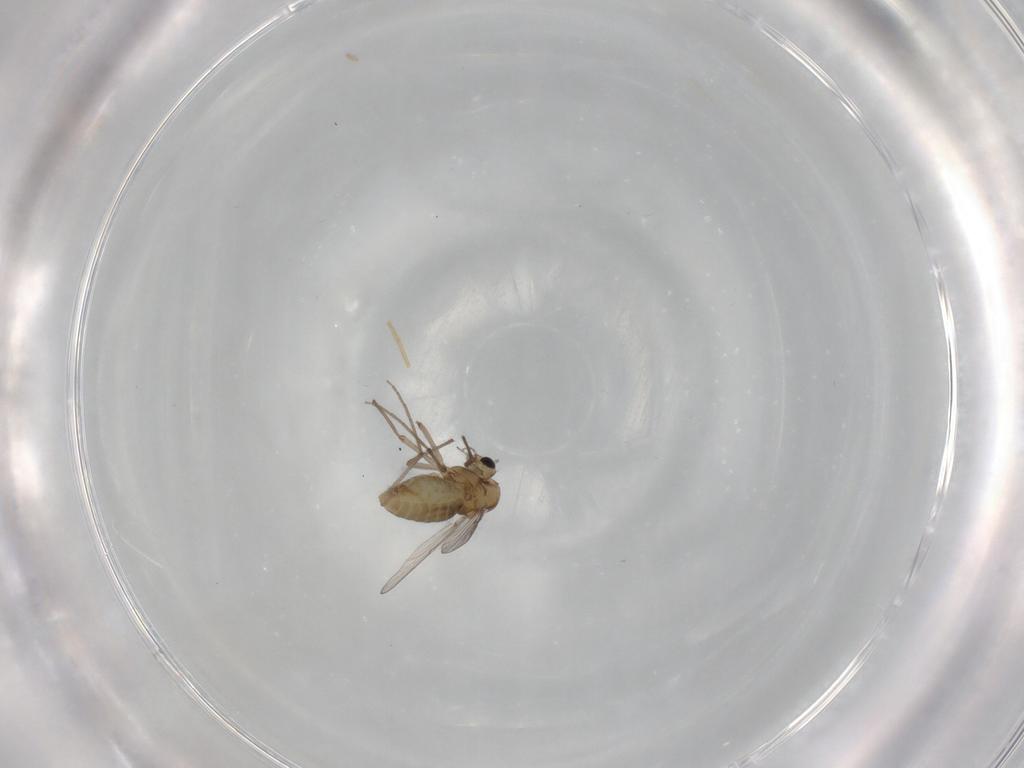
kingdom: Animalia
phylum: Arthropoda
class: Insecta
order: Diptera
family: Chironomidae
